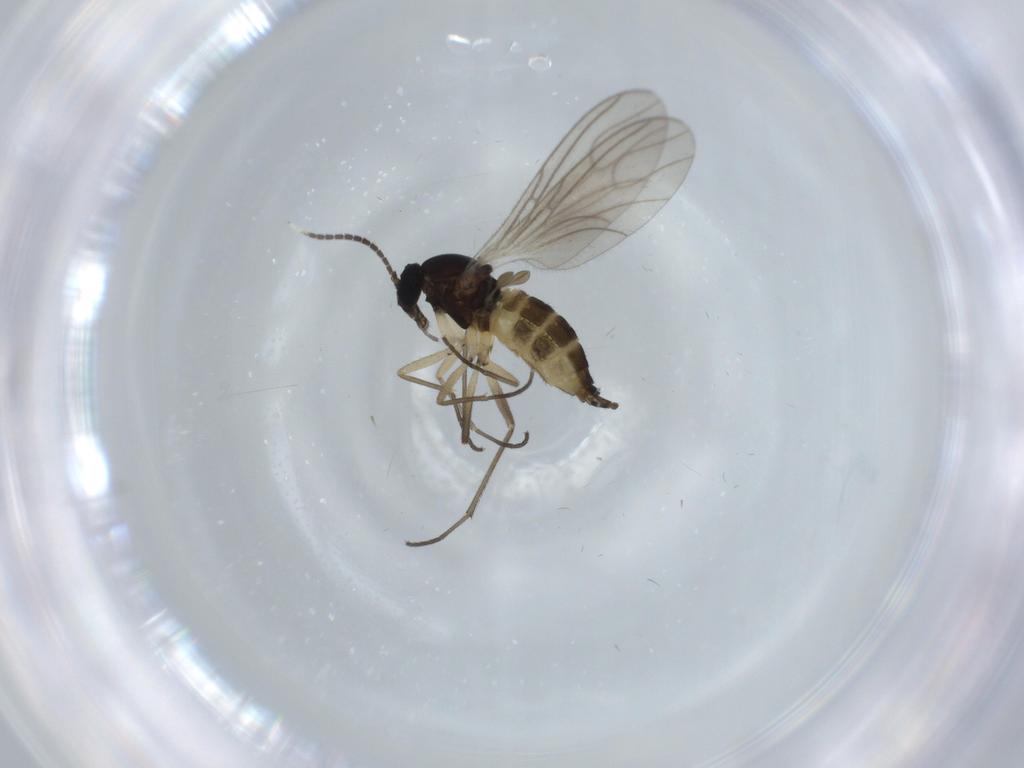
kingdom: Animalia
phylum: Arthropoda
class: Insecta
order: Diptera
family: Sciaridae
